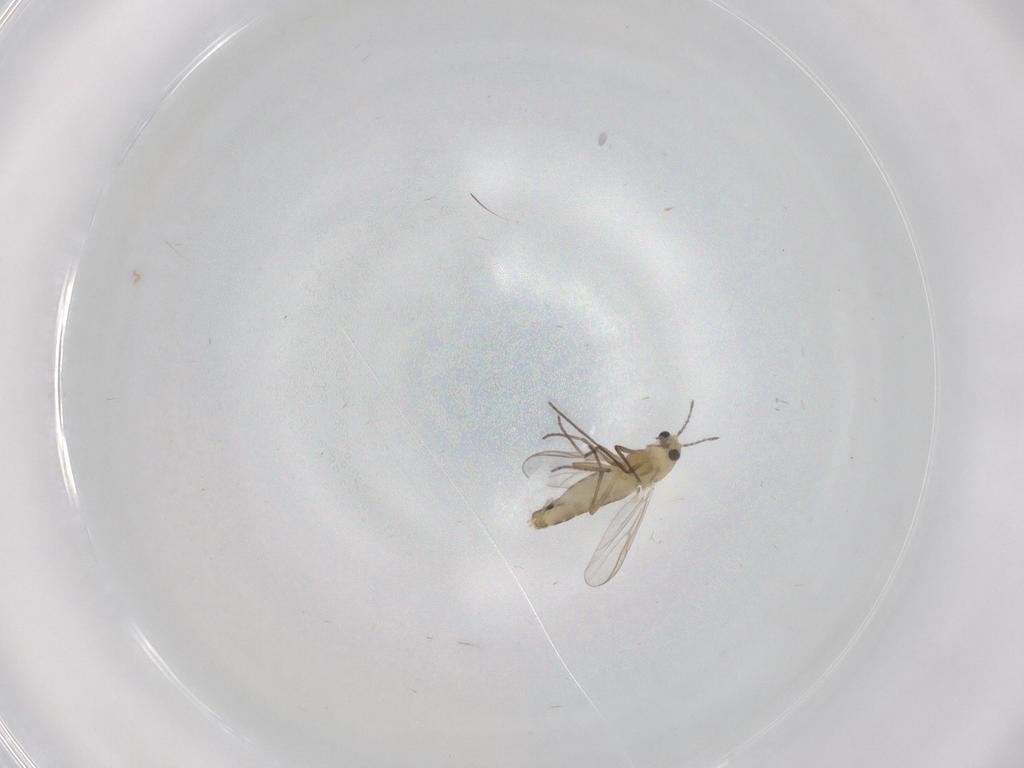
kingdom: Animalia
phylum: Arthropoda
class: Insecta
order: Diptera
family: Chironomidae
